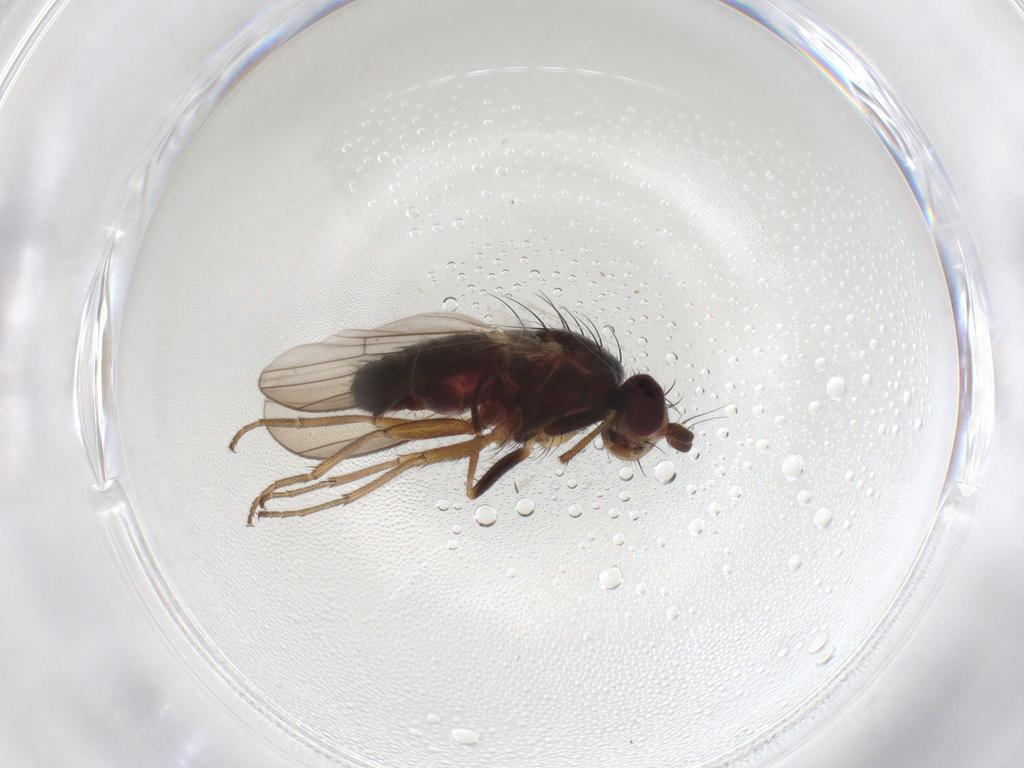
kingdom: Animalia
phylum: Arthropoda
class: Insecta
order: Diptera
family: Heleomyzidae
